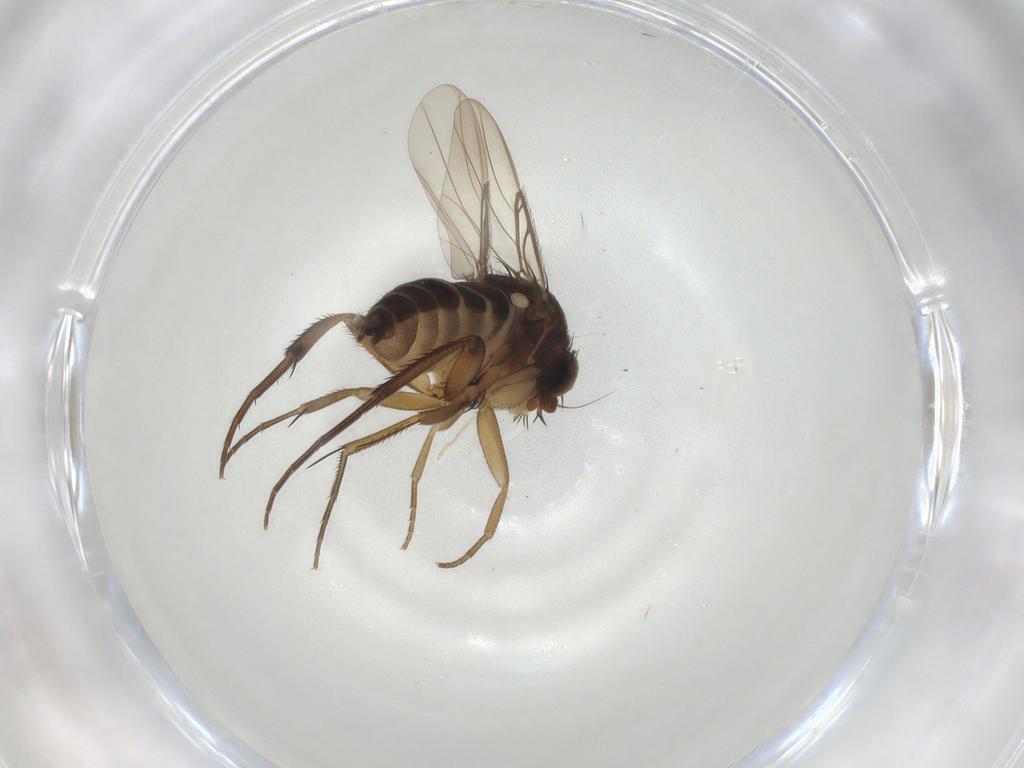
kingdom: Animalia
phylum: Arthropoda
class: Insecta
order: Diptera
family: Phoridae
